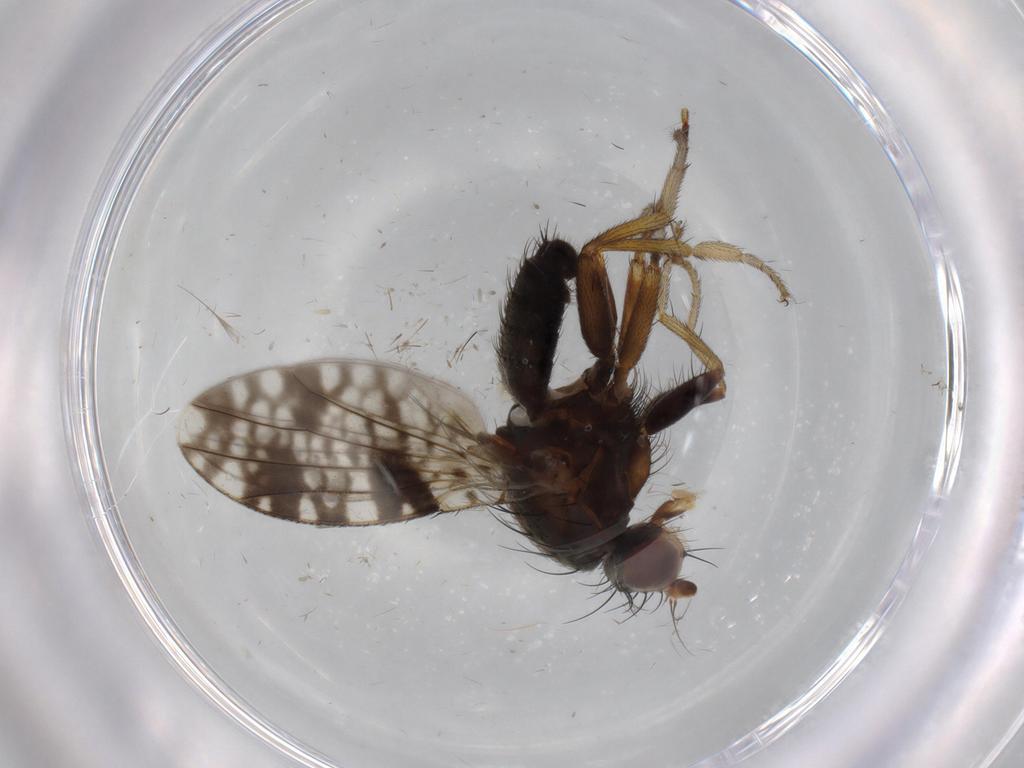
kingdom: Animalia
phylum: Arthropoda
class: Insecta
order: Diptera
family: Tephritidae
